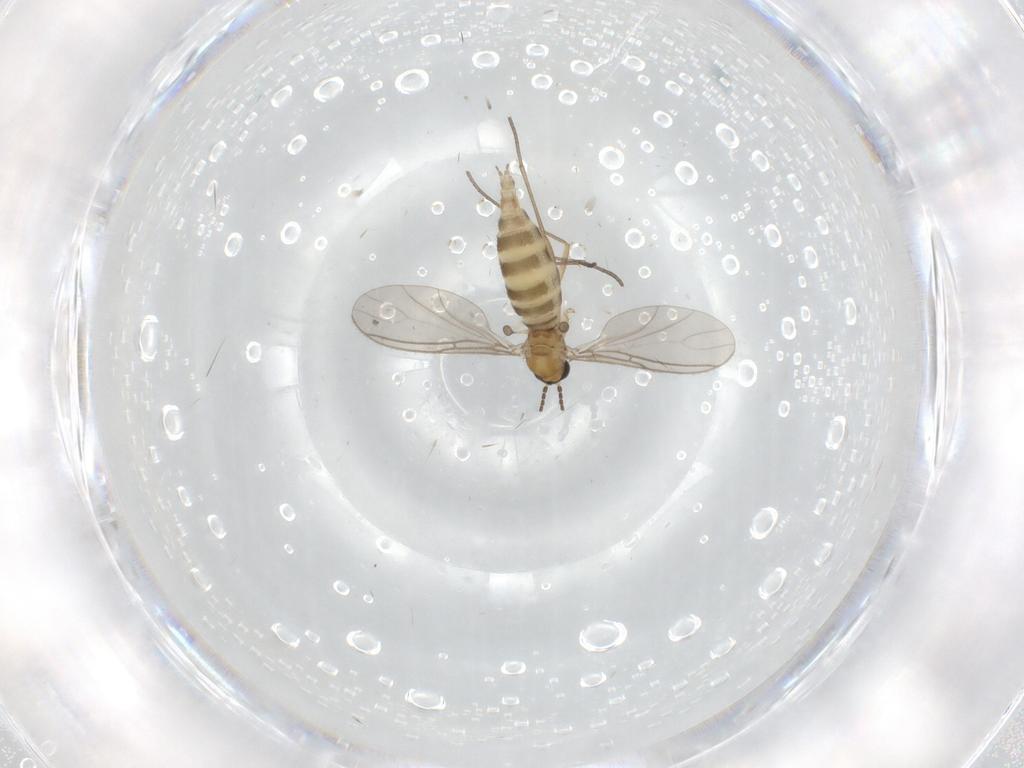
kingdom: Animalia
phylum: Arthropoda
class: Insecta
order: Diptera
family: Sciaridae
